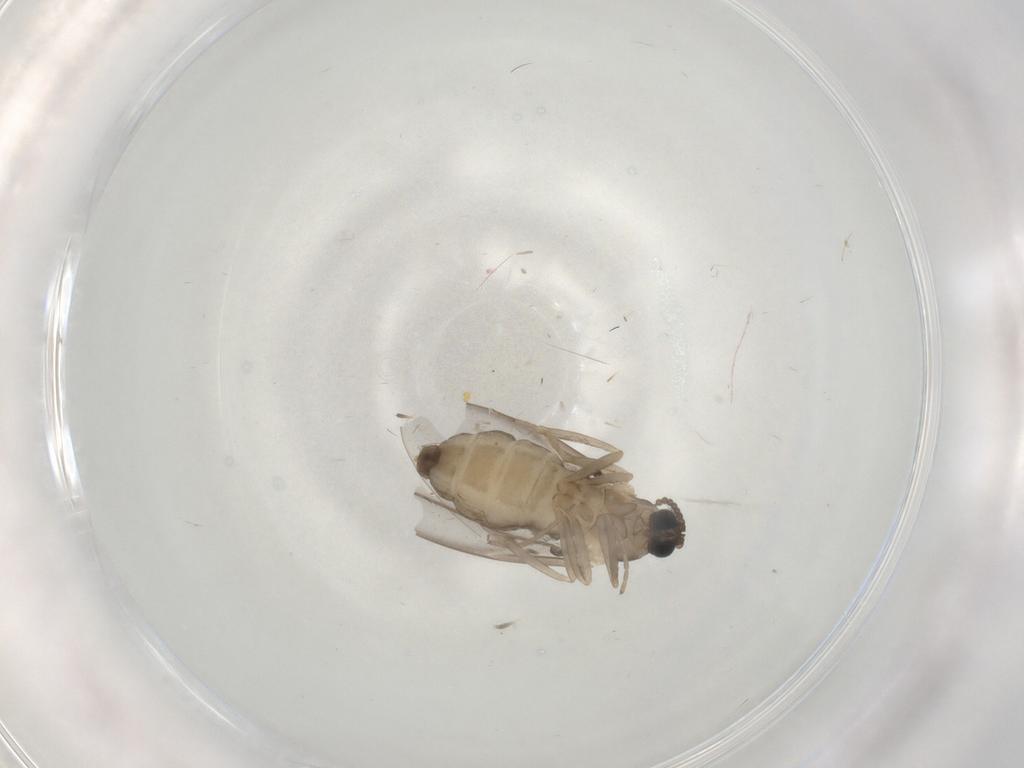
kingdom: Animalia
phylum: Arthropoda
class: Insecta
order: Diptera
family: Cecidomyiidae
